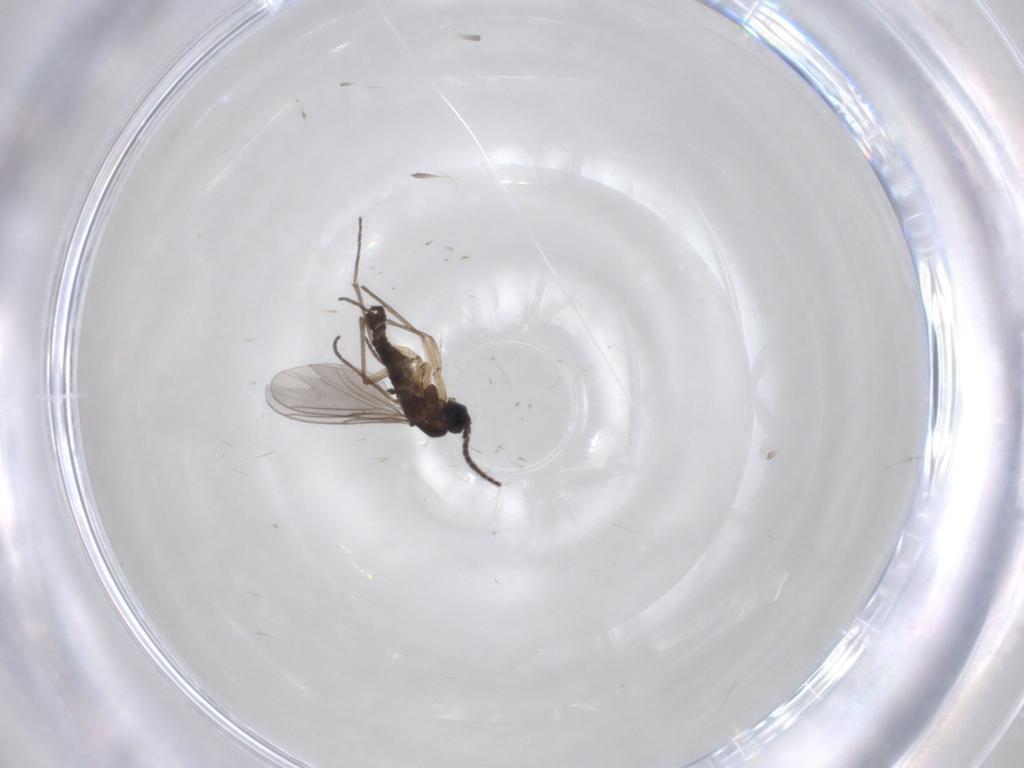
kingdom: Animalia
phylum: Arthropoda
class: Insecta
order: Diptera
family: Sciaridae
